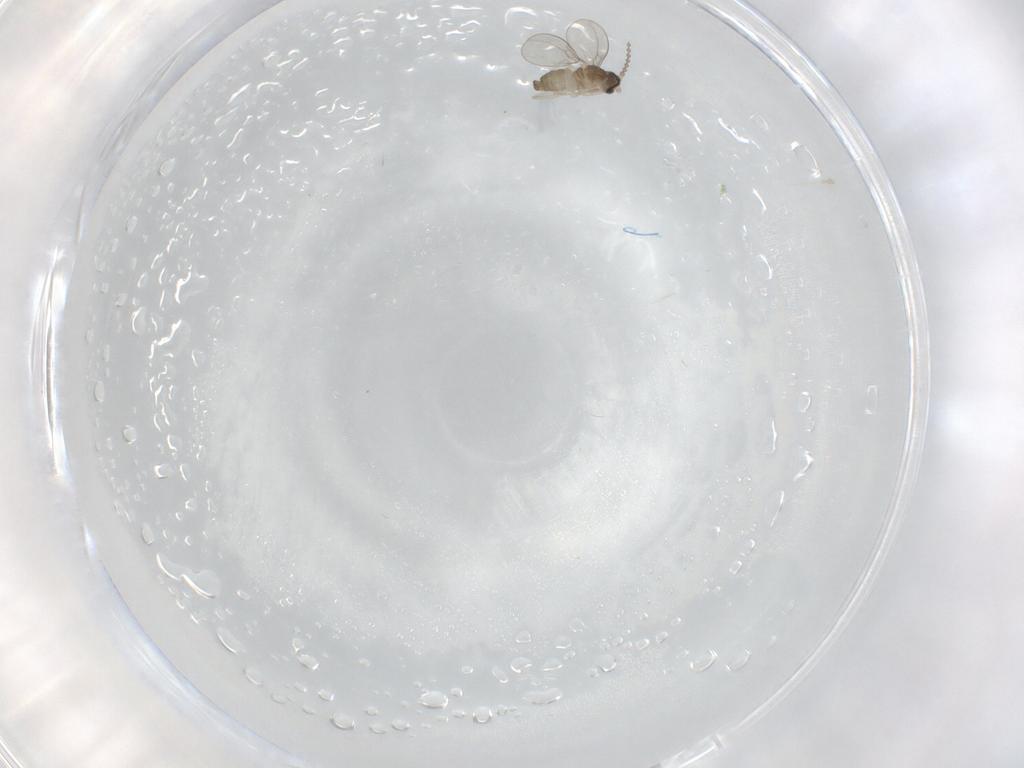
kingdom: Animalia
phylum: Arthropoda
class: Insecta
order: Diptera
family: Cecidomyiidae
